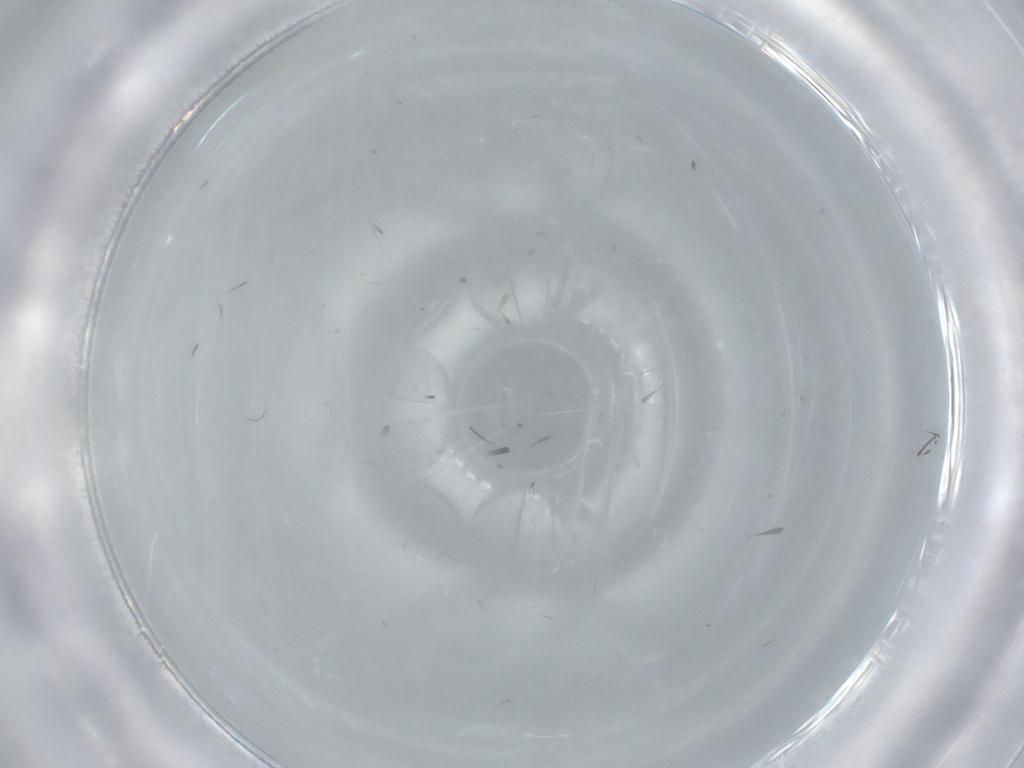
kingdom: Animalia
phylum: Arthropoda
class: Insecta
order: Diptera
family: Ceratopogonidae
